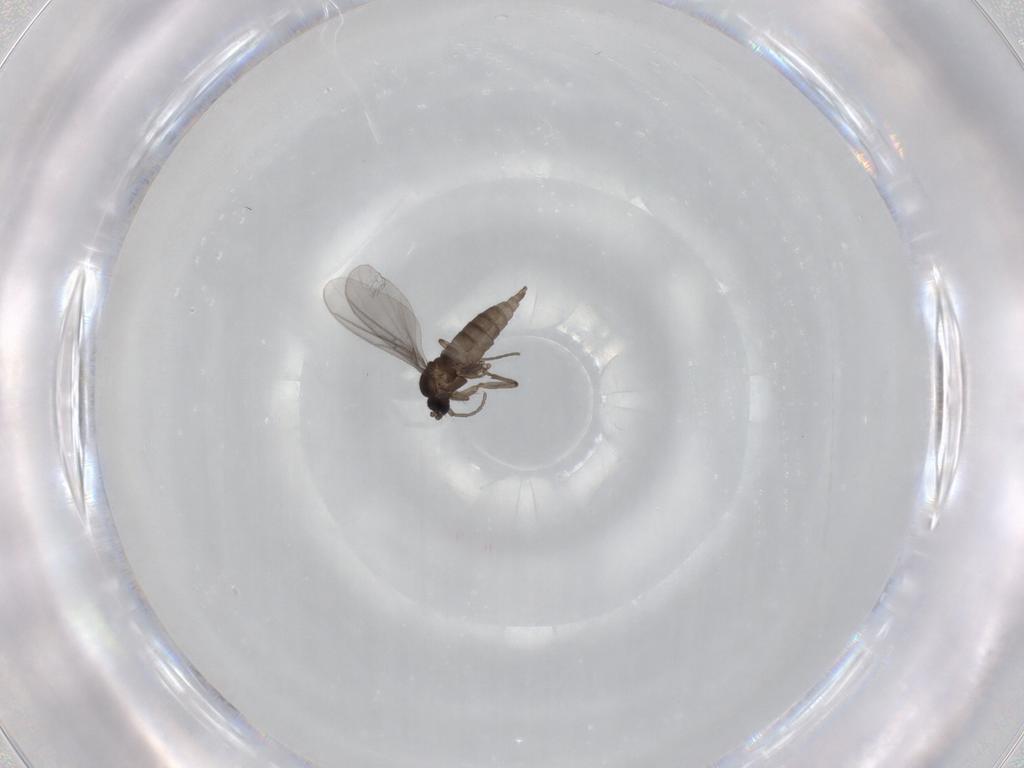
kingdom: Animalia
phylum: Arthropoda
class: Insecta
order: Diptera
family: Sciaridae
